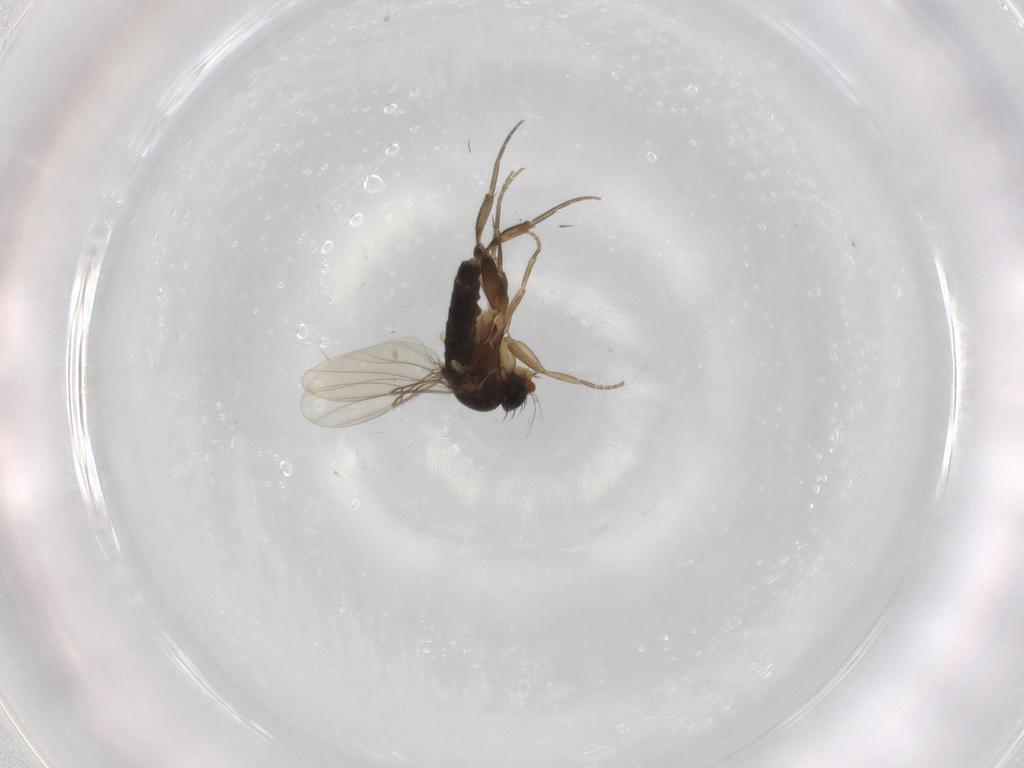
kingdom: Animalia
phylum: Arthropoda
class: Insecta
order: Diptera
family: Phoridae
